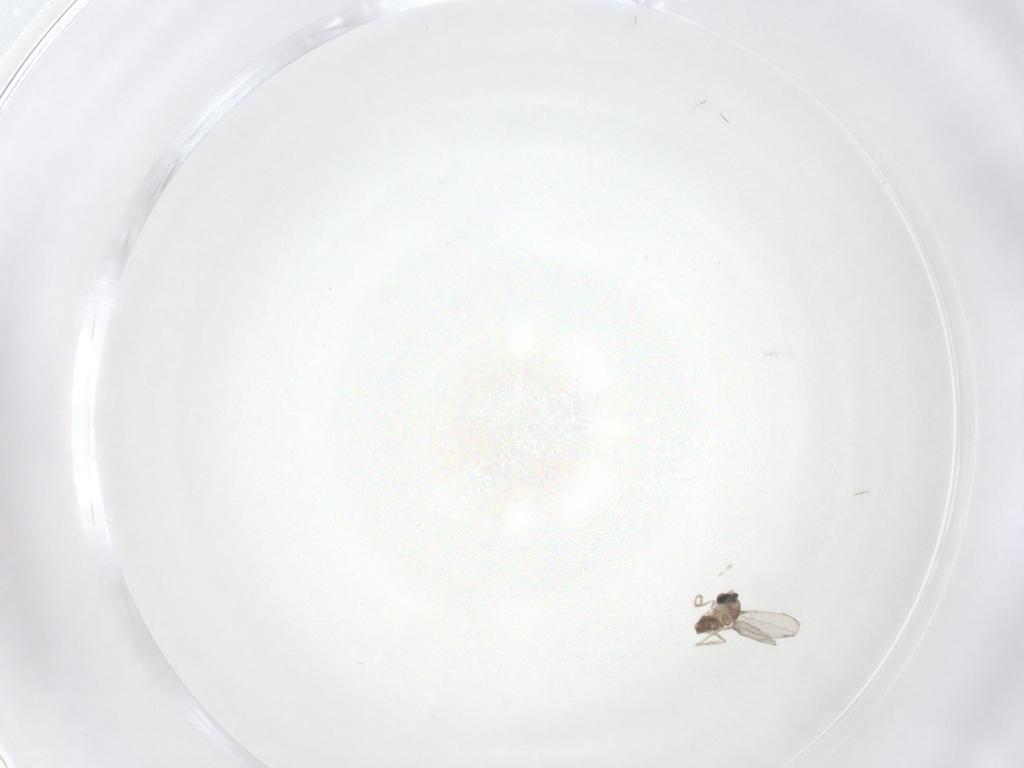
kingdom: Animalia
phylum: Arthropoda
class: Insecta
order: Diptera
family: Cecidomyiidae
